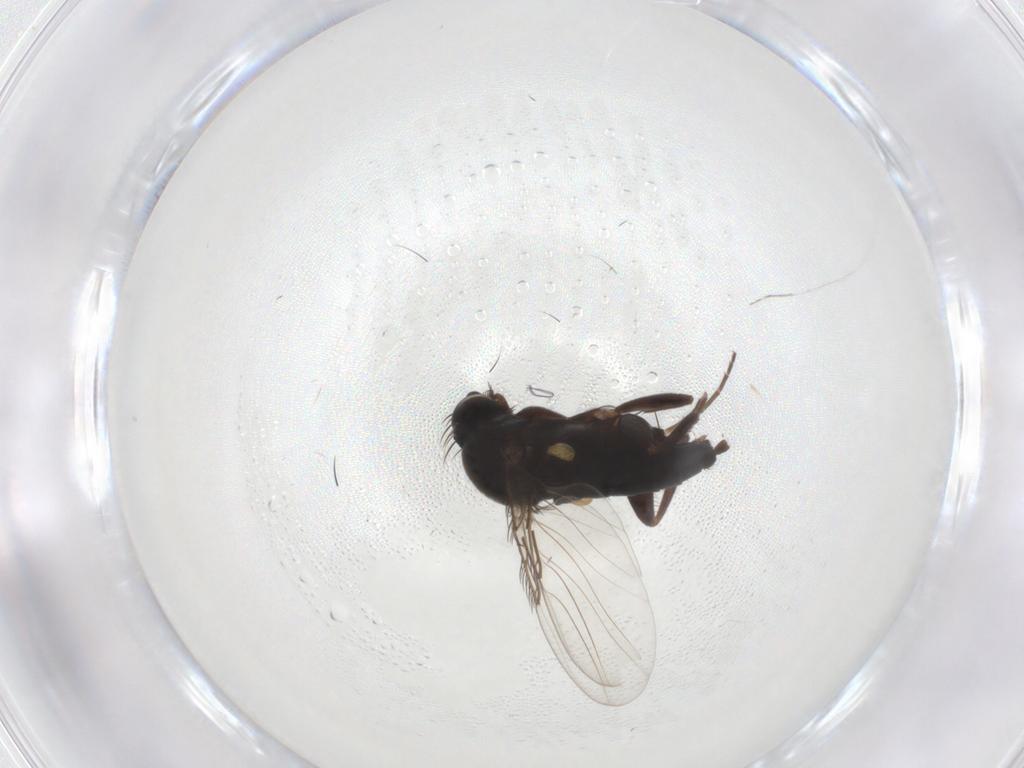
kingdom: Animalia
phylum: Arthropoda
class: Insecta
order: Diptera
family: Phoridae
